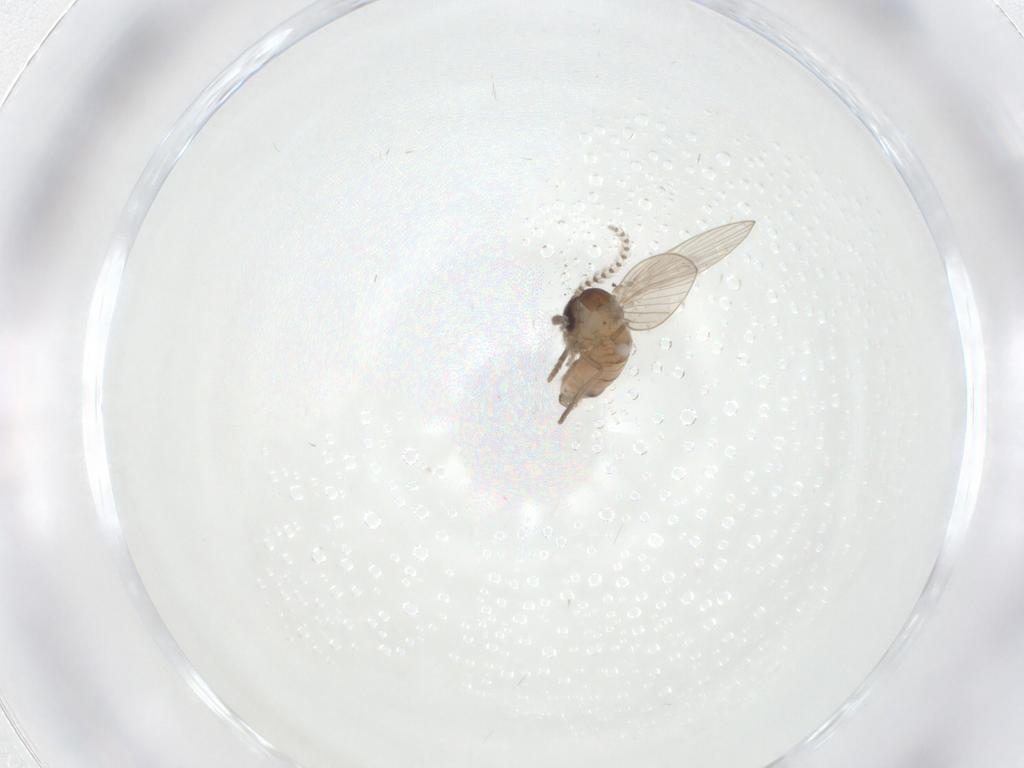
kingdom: Animalia
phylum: Arthropoda
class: Insecta
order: Diptera
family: Psychodidae
